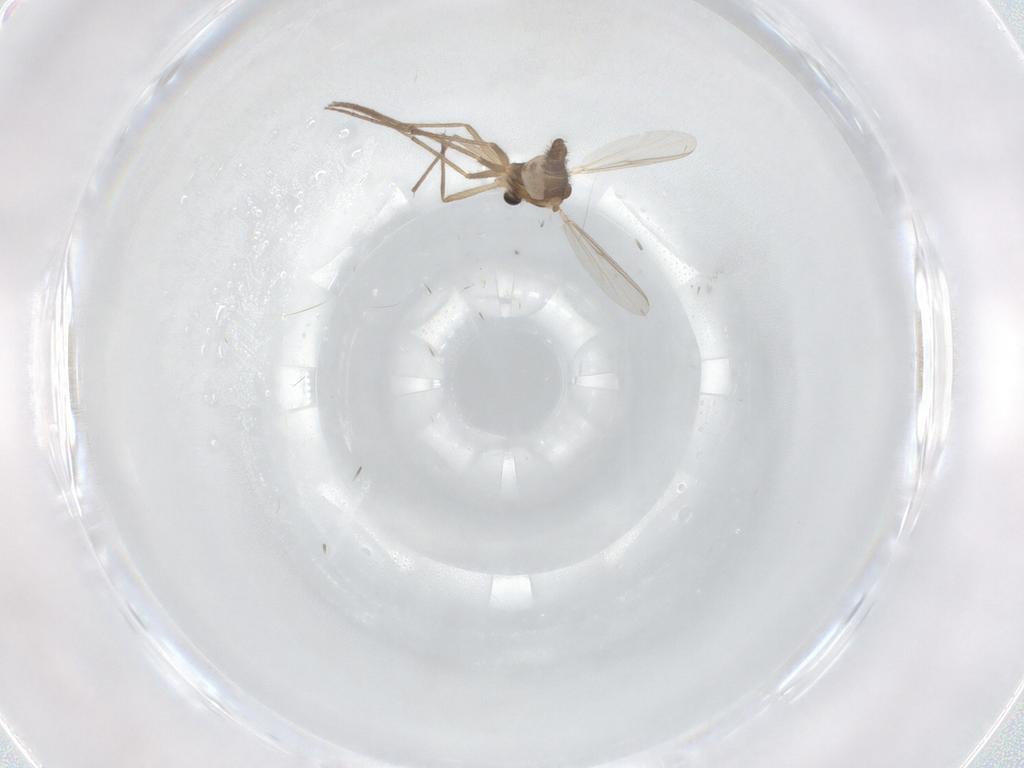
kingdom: Animalia
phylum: Arthropoda
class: Insecta
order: Diptera
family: Chironomidae
